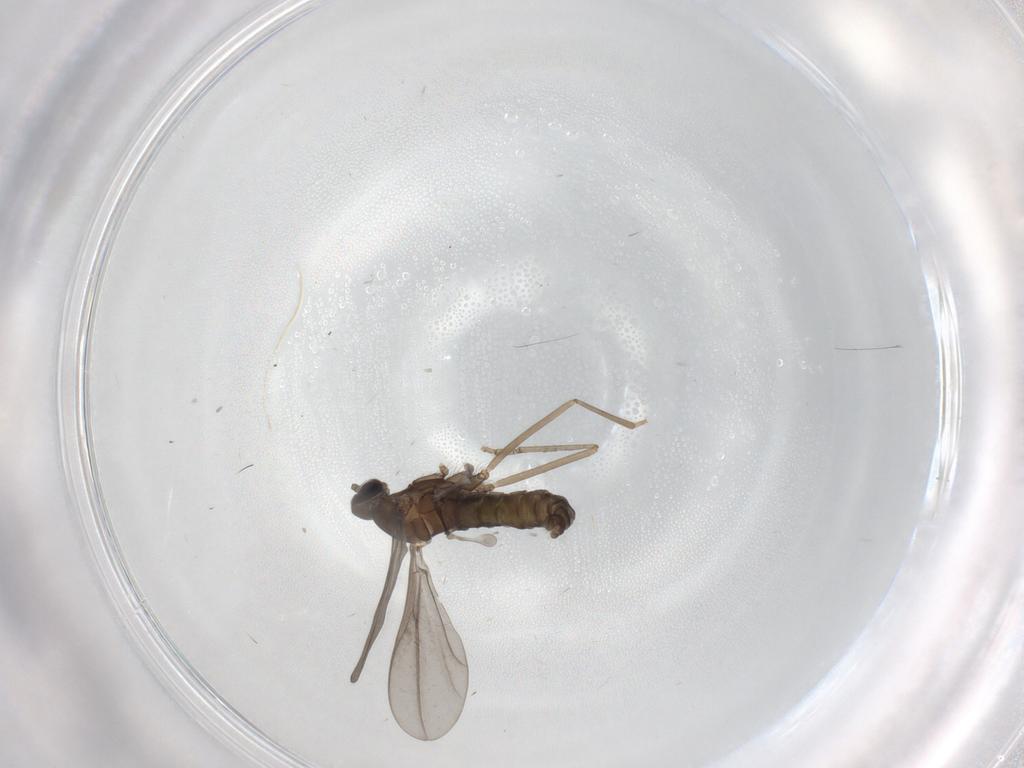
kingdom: Animalia
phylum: Arthropoda
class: Insecta
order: Diptera
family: Cecidomyiidae
